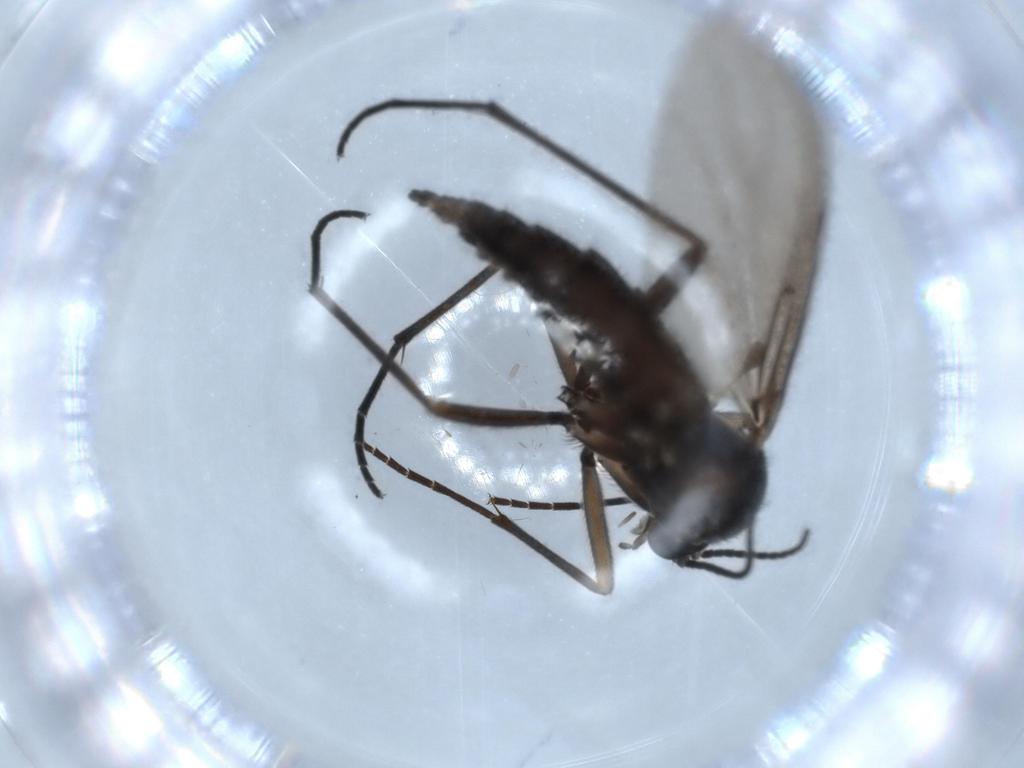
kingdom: Animalia
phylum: Arthropoda
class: Insecta
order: Diptera
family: Sciaridae
